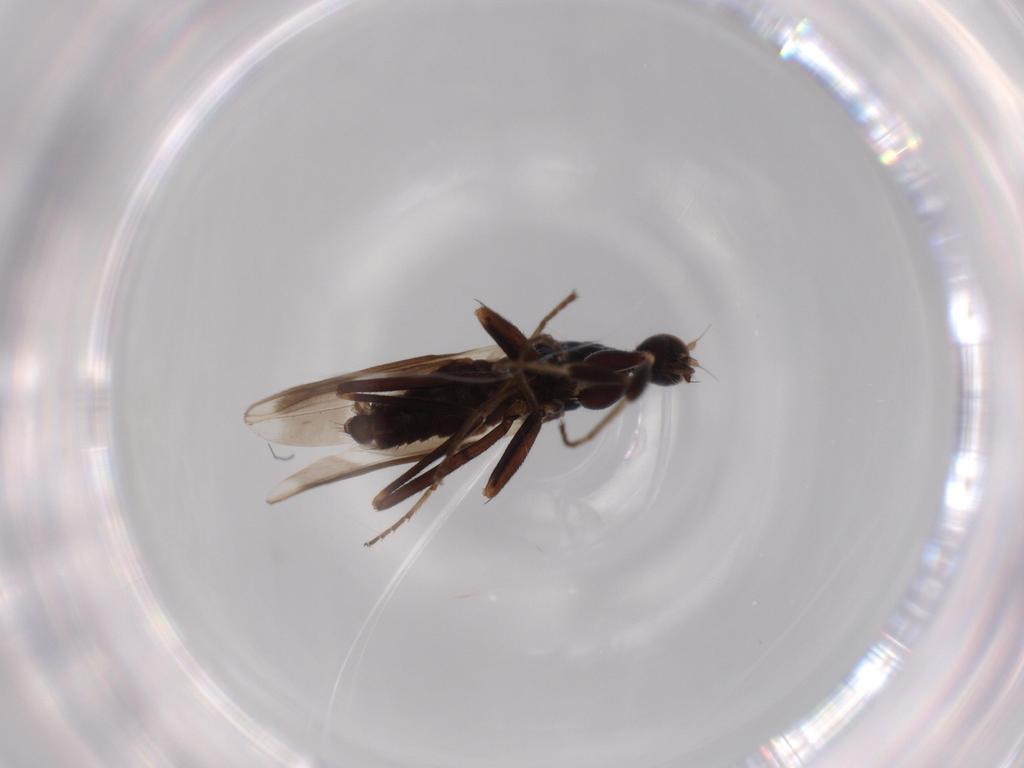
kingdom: Animalia
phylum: Arthropoda
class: Insecta
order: Diptera
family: Hybotidae
